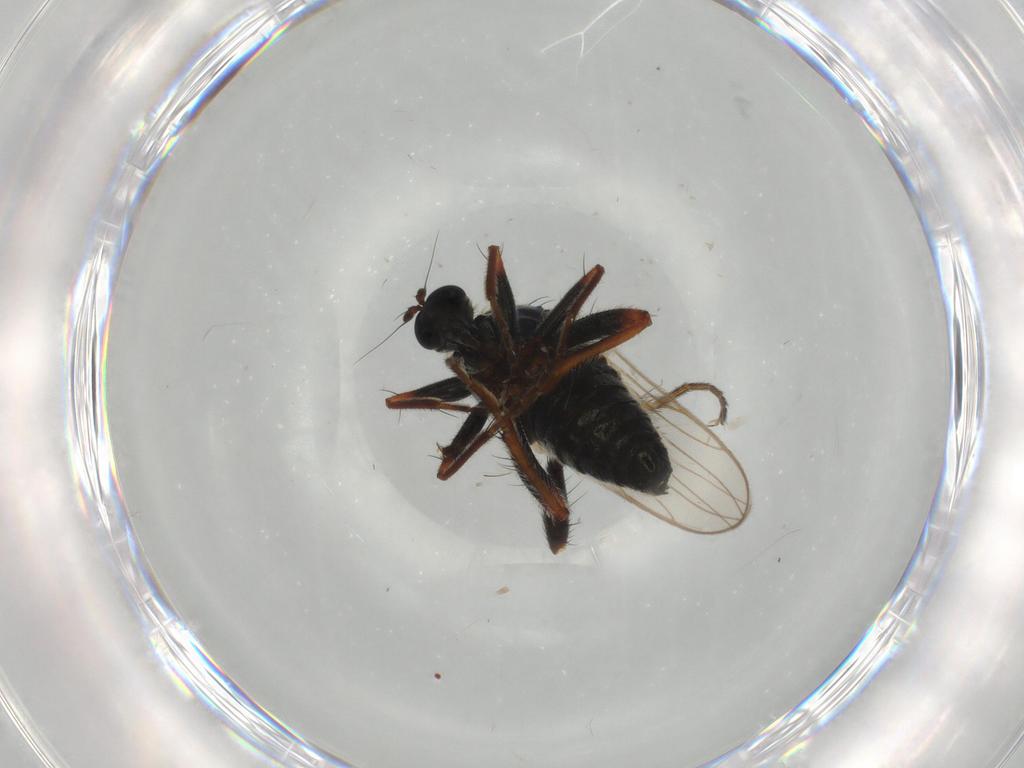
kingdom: Animalia
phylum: Arthropoda
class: Insecta
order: Diptera
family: Hybotidae
